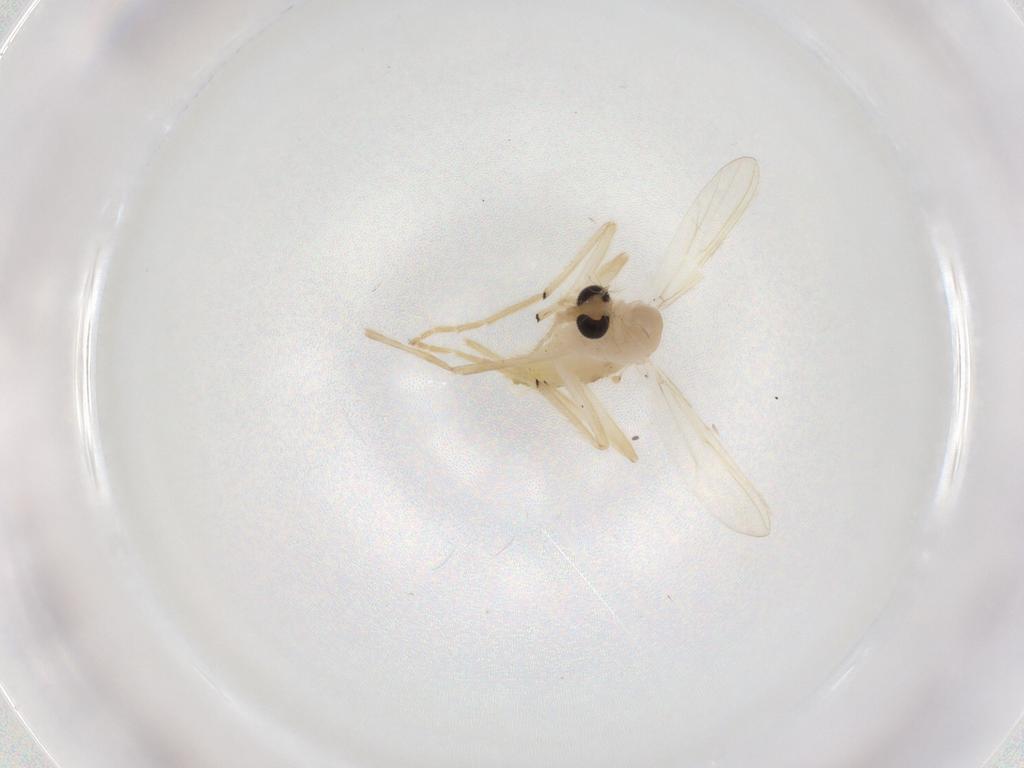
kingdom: Animalia
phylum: Arthropoda
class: Insecta
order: Diptera
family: Chironomidae
